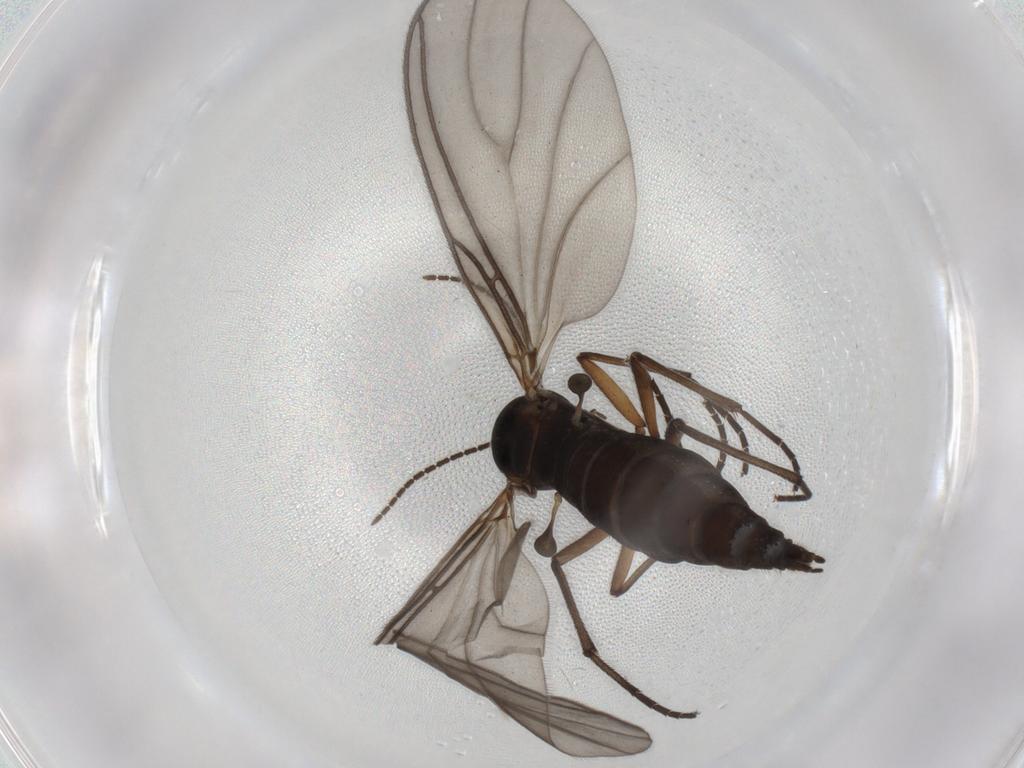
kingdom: Animalia
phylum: Arthropoda
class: Insecta
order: Diptera
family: Sciaridae
